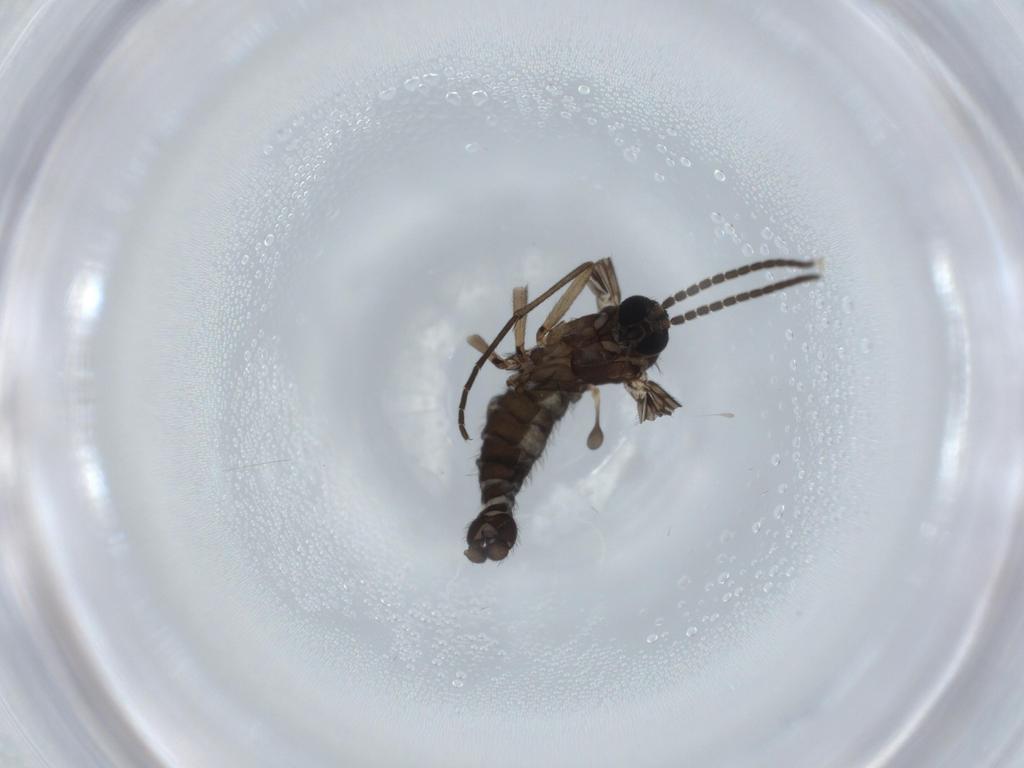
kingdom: Animalia
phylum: Arthropoda
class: Insecta
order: Diptera
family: Sciaridae
